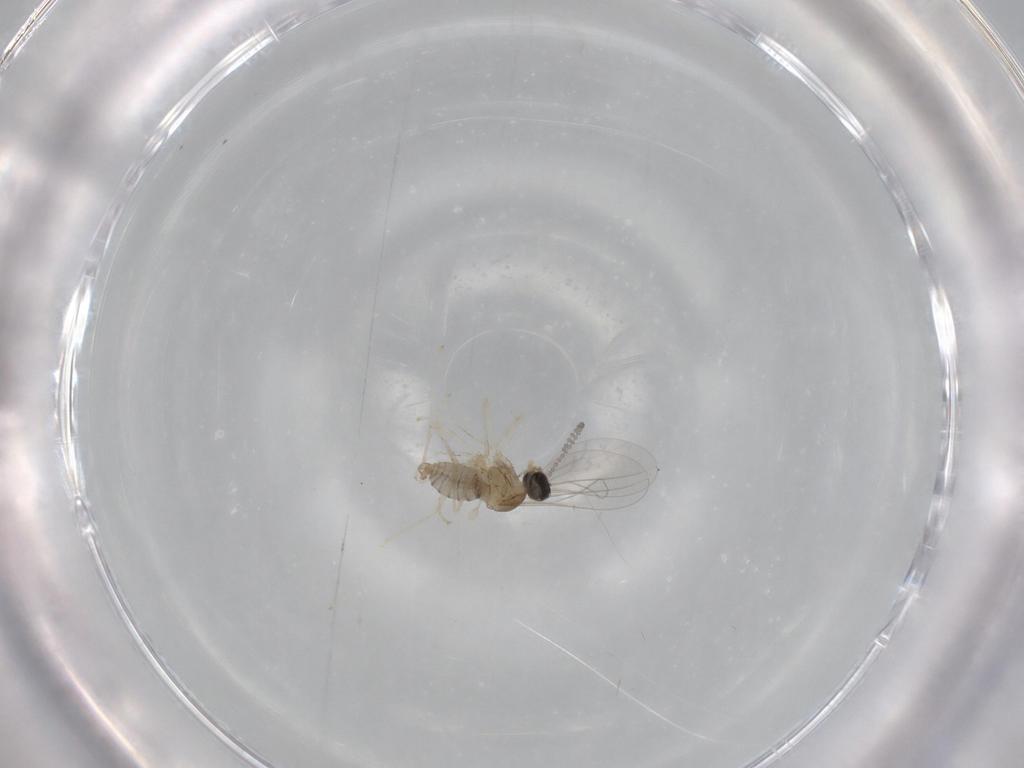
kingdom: Animalia
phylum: Arthropoda
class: Insecta
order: Diptera
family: Cecidomyiidae
